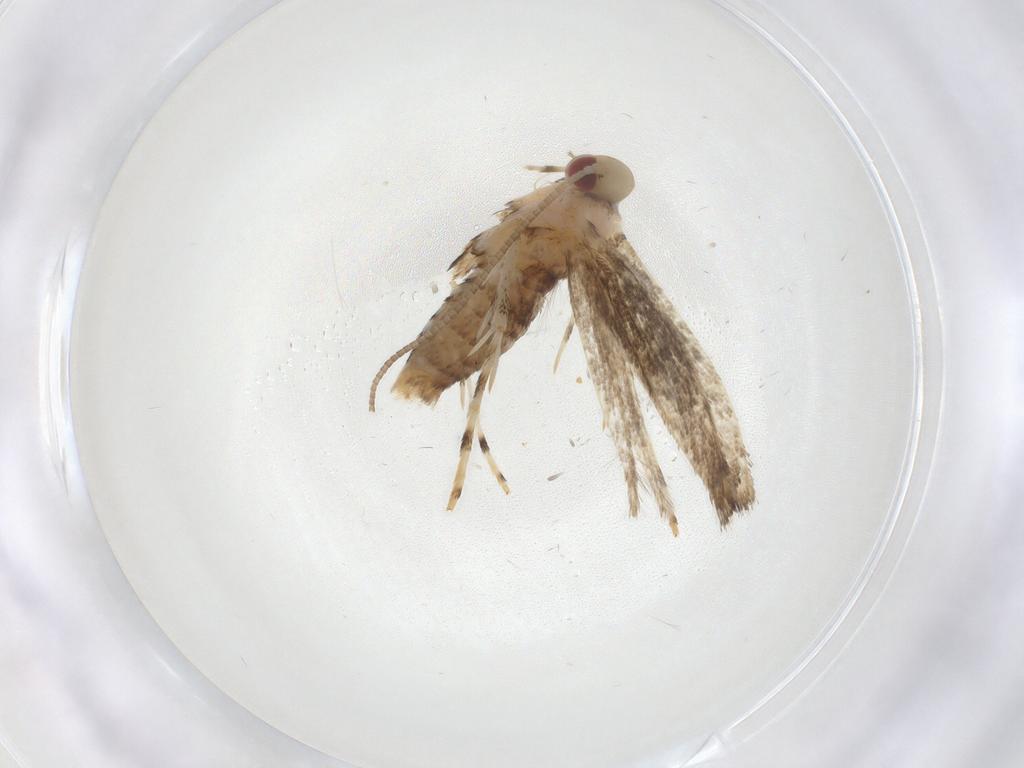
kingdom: Animalia
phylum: Arthropoda
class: Insecta
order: Lepidoptera
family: Gracillariidae
